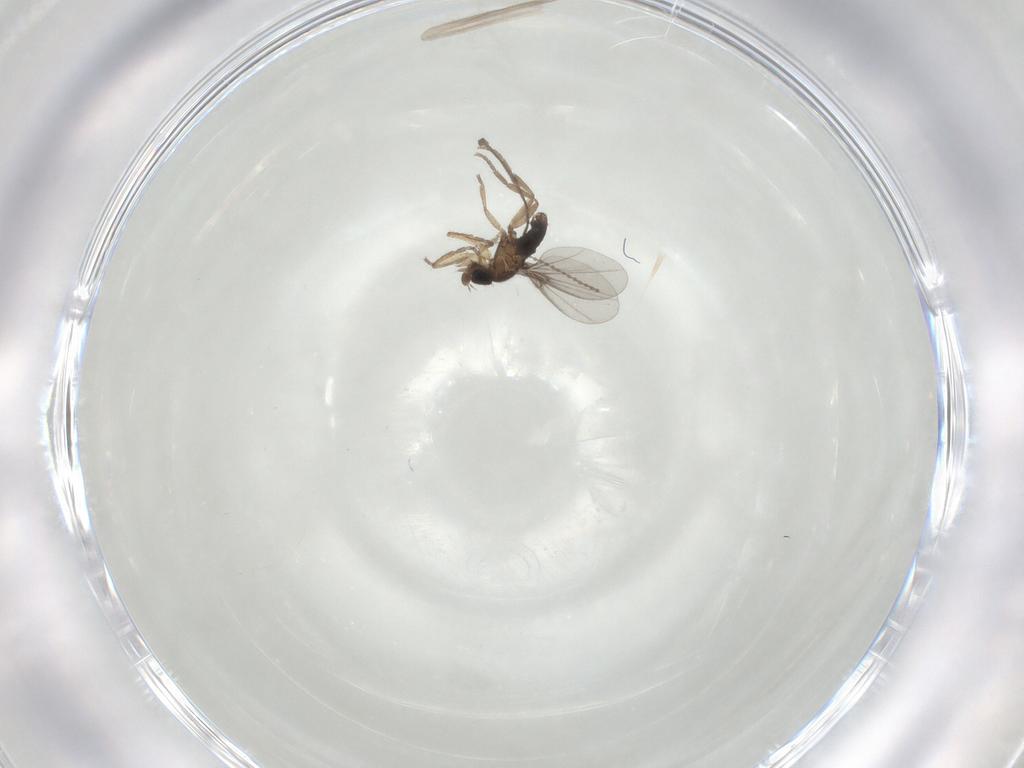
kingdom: Animalia
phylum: Arthropoda
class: Insecta
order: Diptera
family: Phoridae
